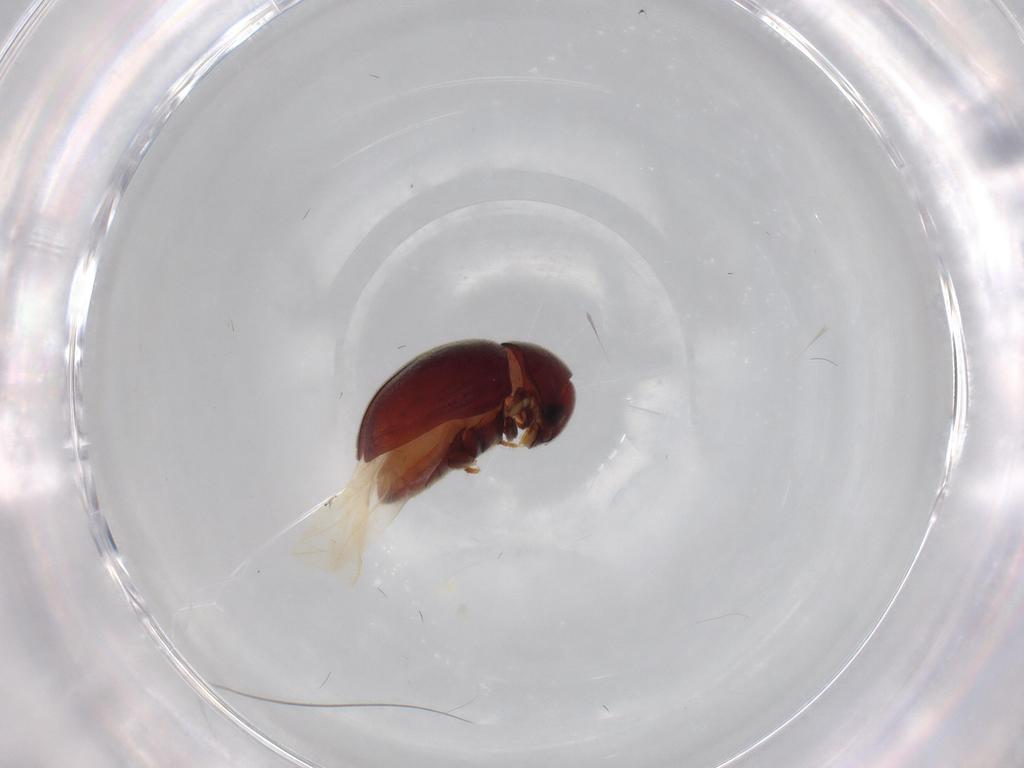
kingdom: Animalia
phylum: Arthropoda
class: Insecta
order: Coleoptera
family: Ptinidae
